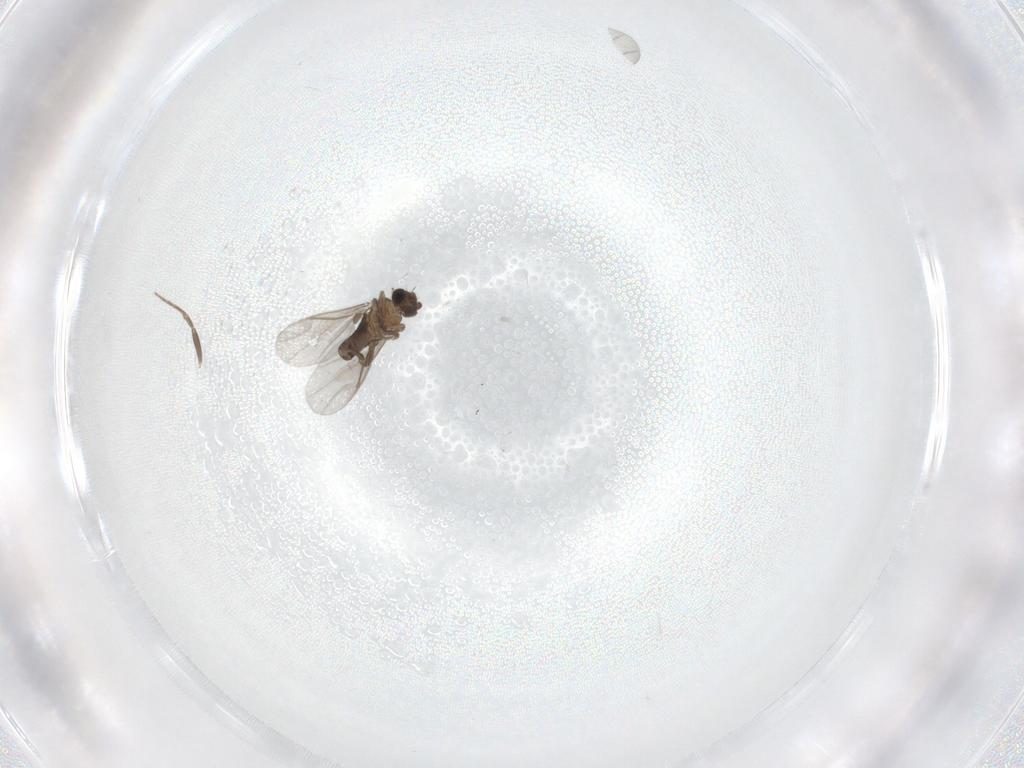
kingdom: Animalia
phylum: Arthropoda
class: Insecta
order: Diptera
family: Phoridae
